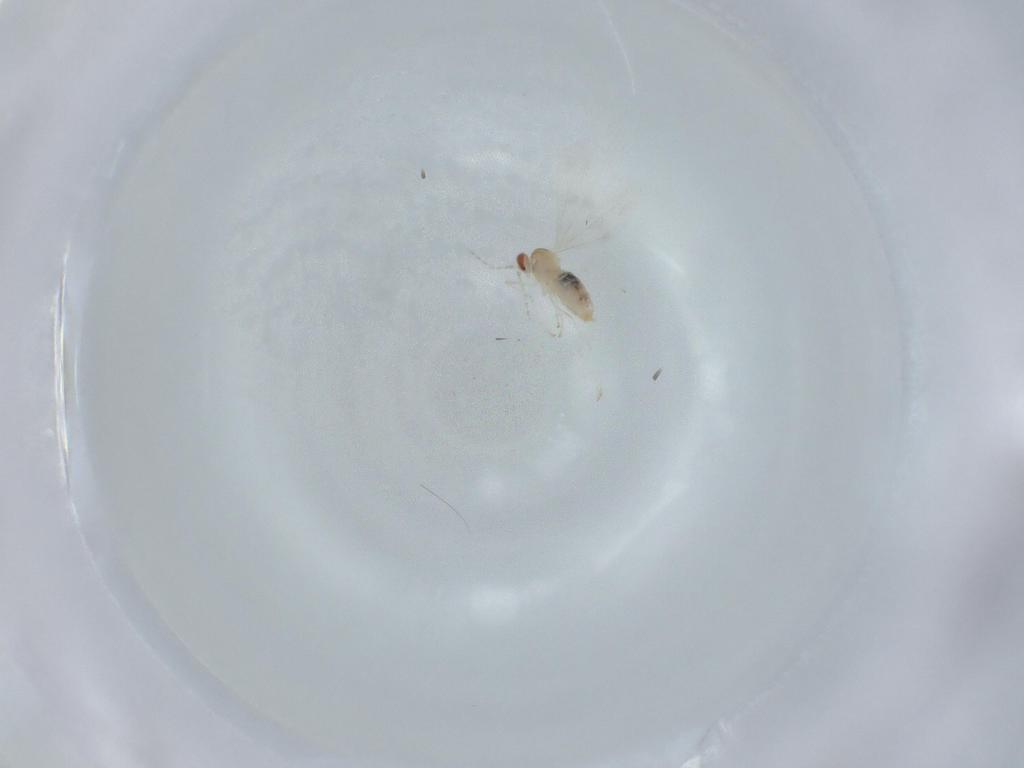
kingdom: Animalia
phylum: Arthropoda
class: Insecta
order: Diptera
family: Cecidomyiidae
